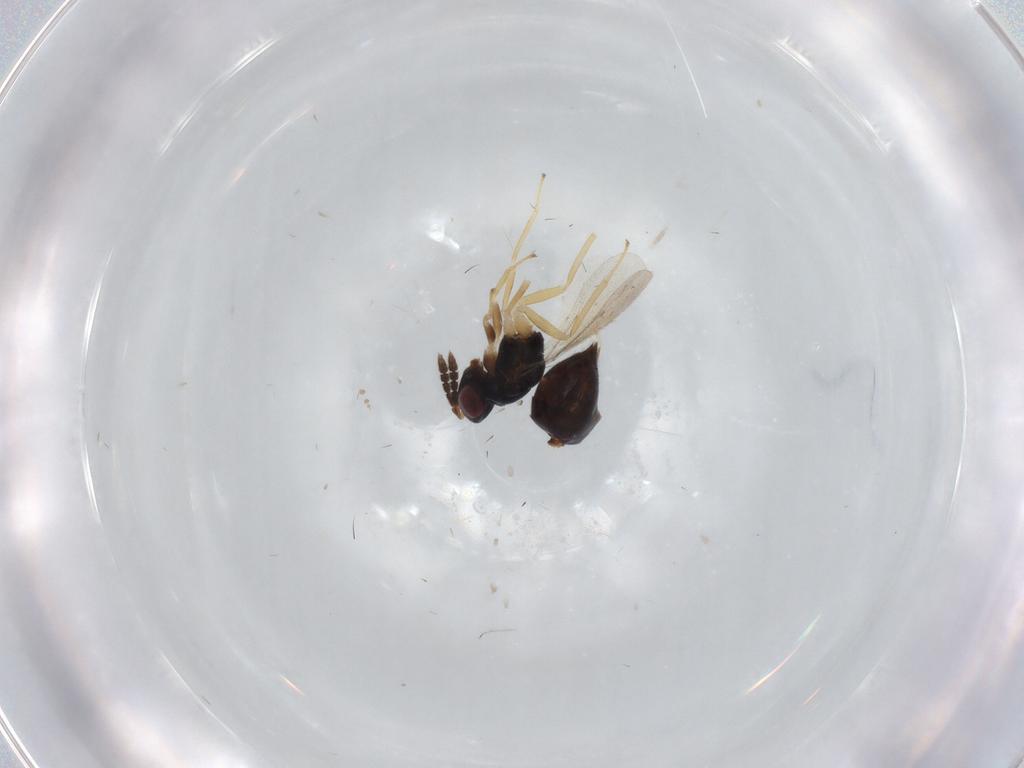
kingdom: Animalia
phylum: Arthropoda
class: Insecta
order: Hymenoptera
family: Eulophidae
